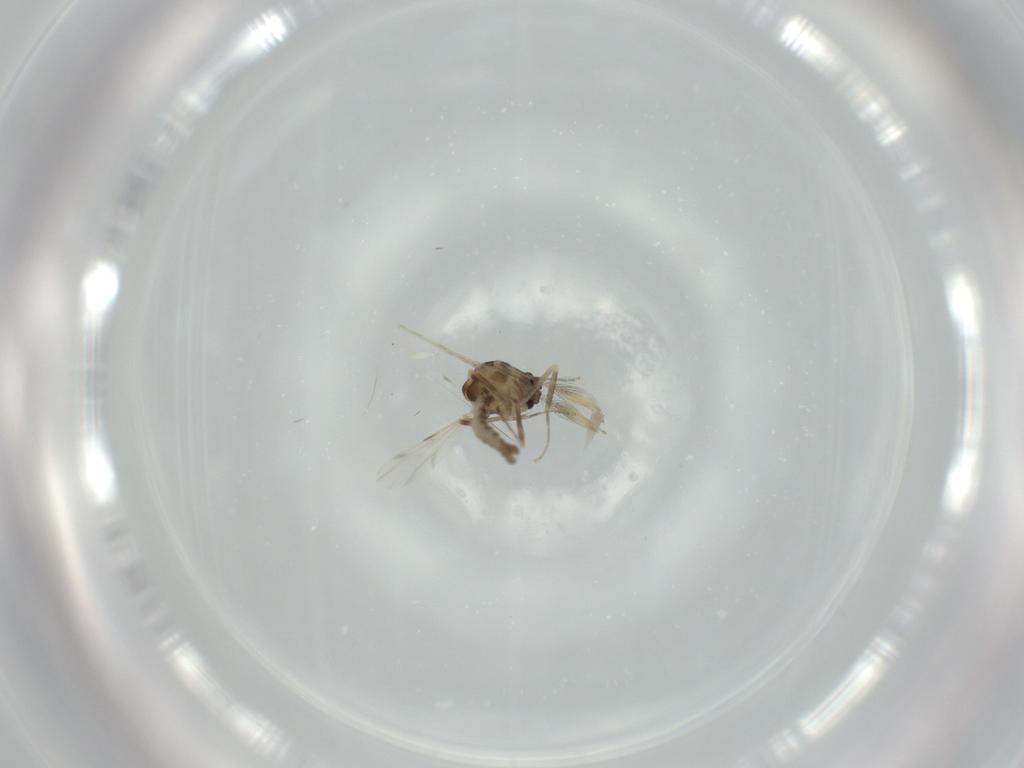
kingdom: Animalia
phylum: Arthropoda
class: Insecta
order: Diptera
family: Ceratopogonidae
